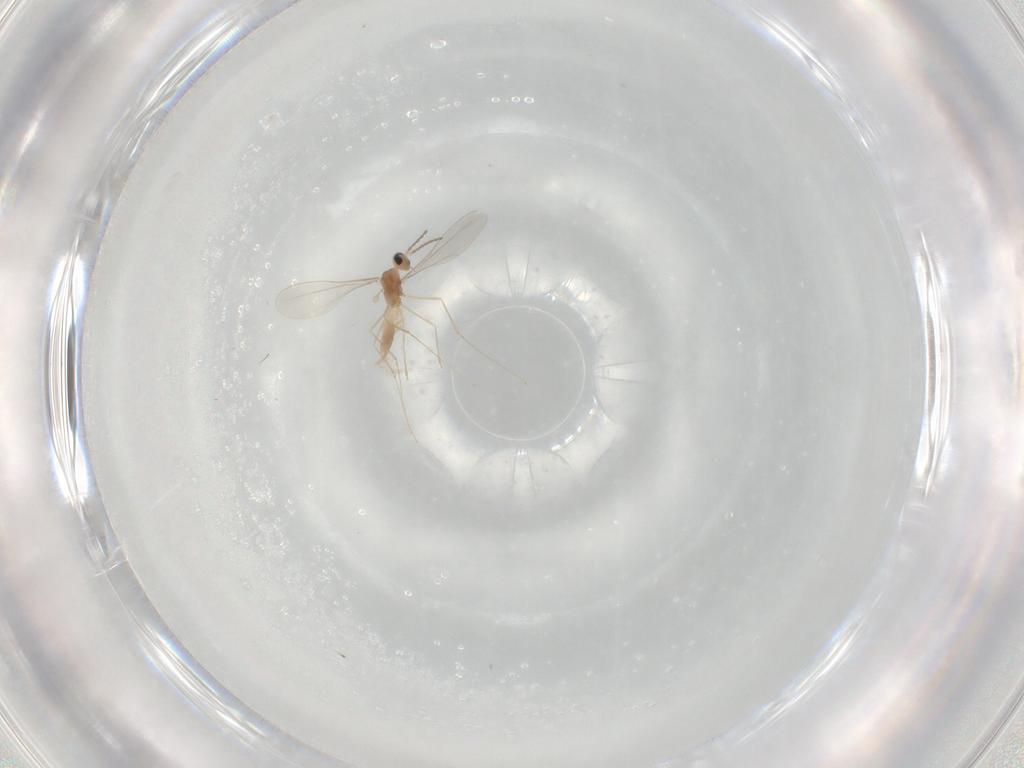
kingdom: Animalia
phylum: Arthropoda
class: Insecta
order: Diptera
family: Sciaridae
